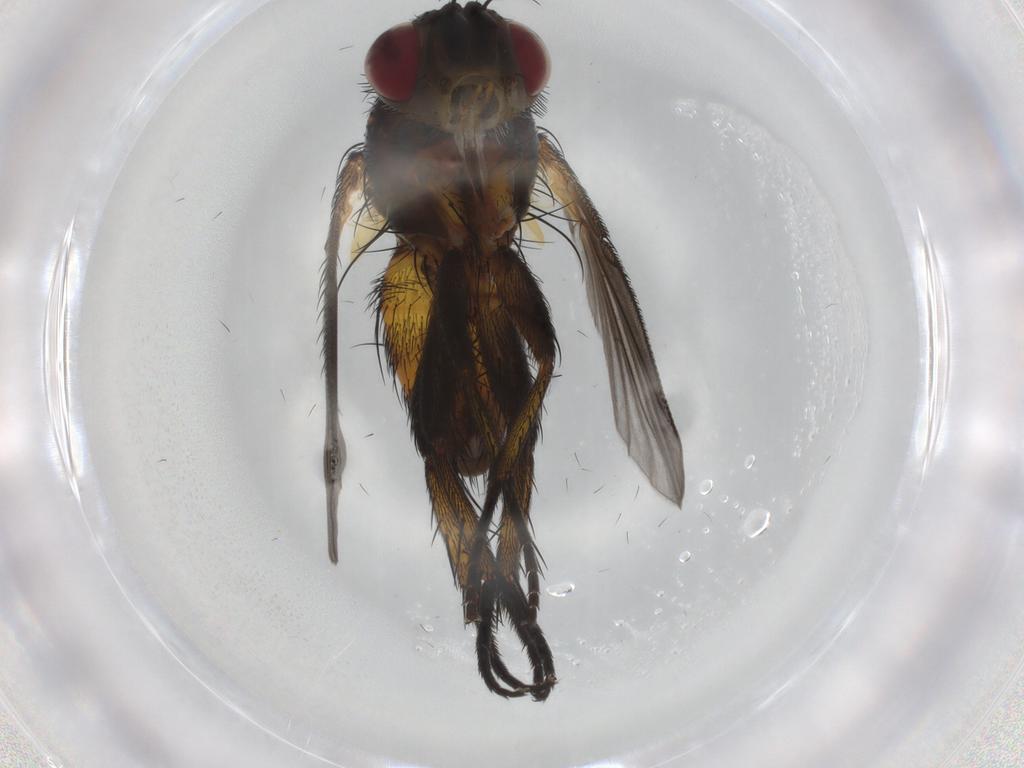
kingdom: Animalia
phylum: Arthropoda
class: Insecta
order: Diptera
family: Tachinidae
